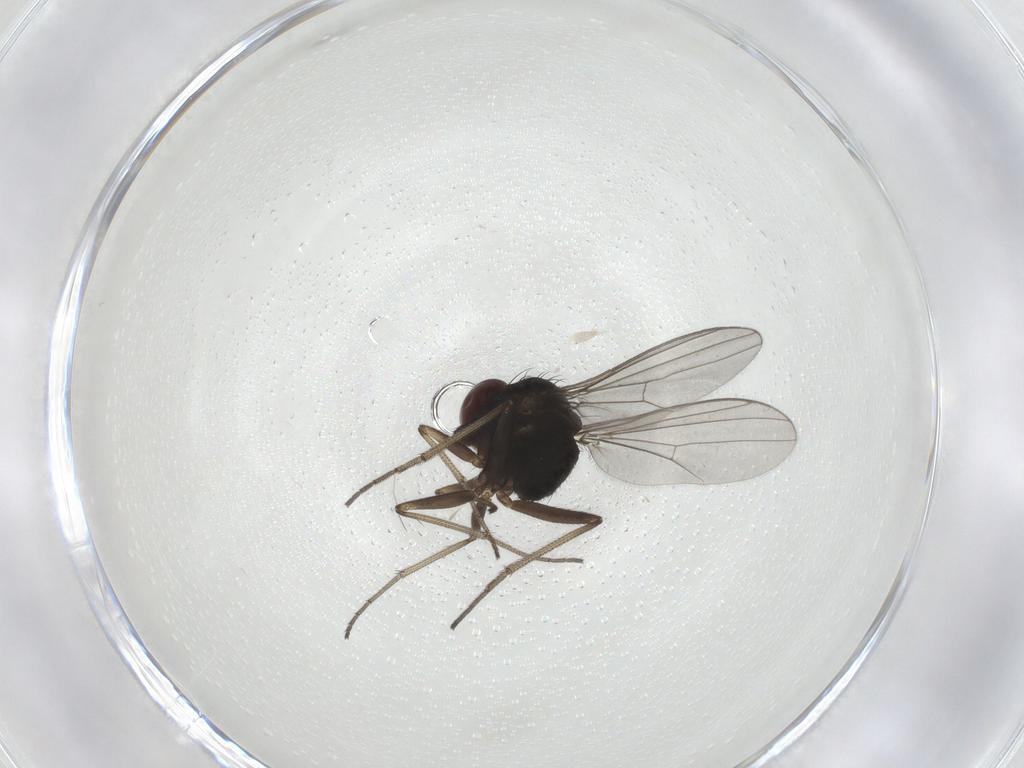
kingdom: Animalia
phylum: Arthropoda
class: Insecta
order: Diptera
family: Dolichopodidae
